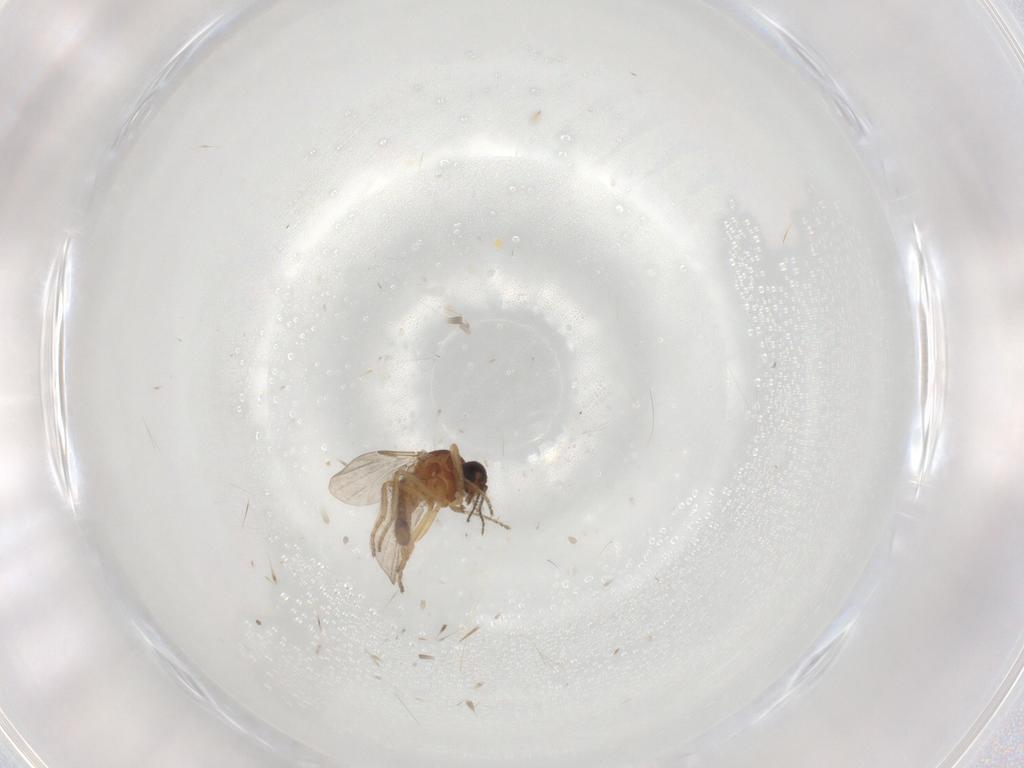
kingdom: Animalia
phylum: Arthropoda
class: Insecta
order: Diptera
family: Ceratopogonidae
